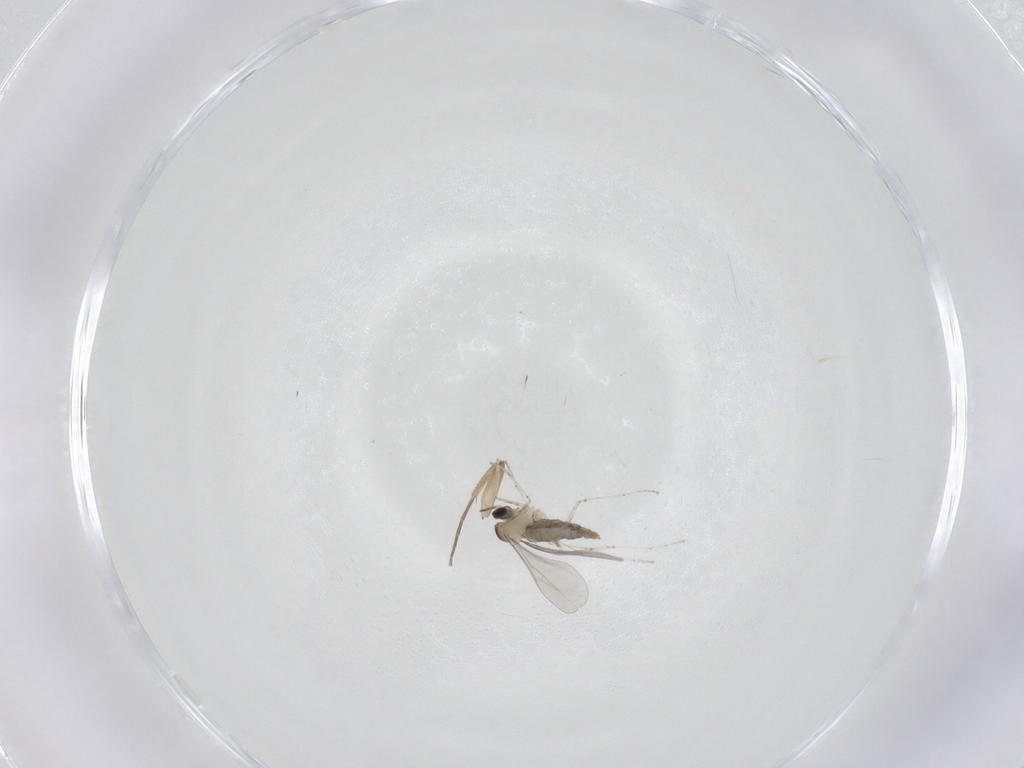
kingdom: Animalia
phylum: Arthropoda
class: Insecta
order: Diptera
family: Phoridae
